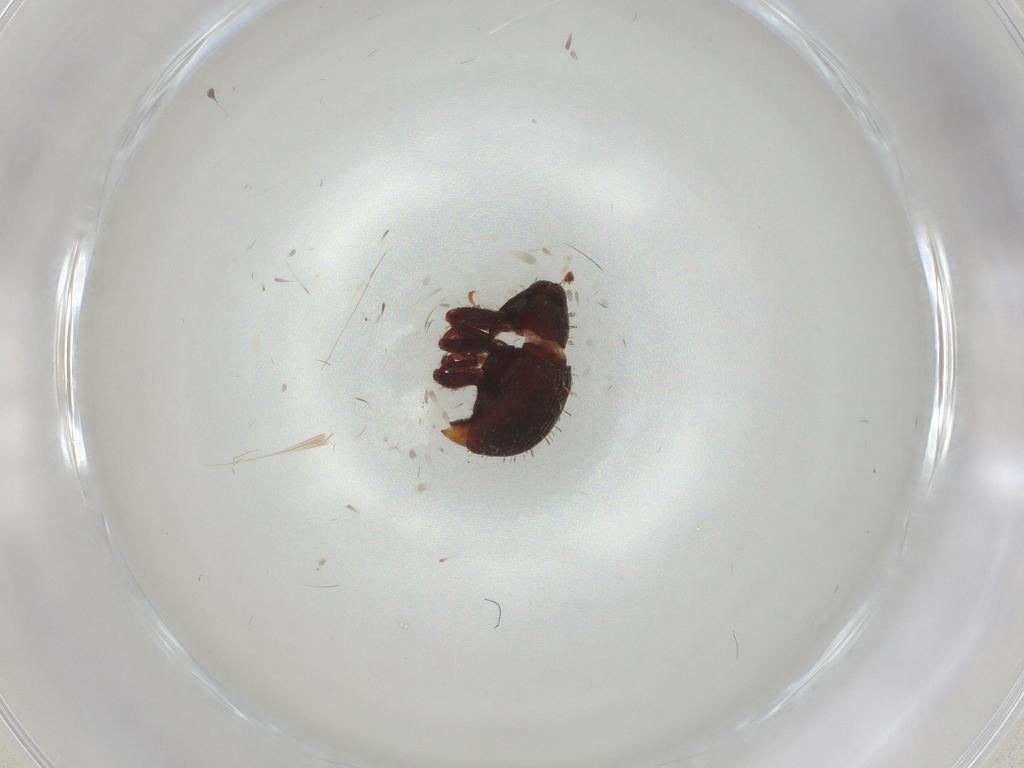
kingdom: Animalia
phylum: Arthropoda
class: Insecta
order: Coleoptera
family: Curculionidae
